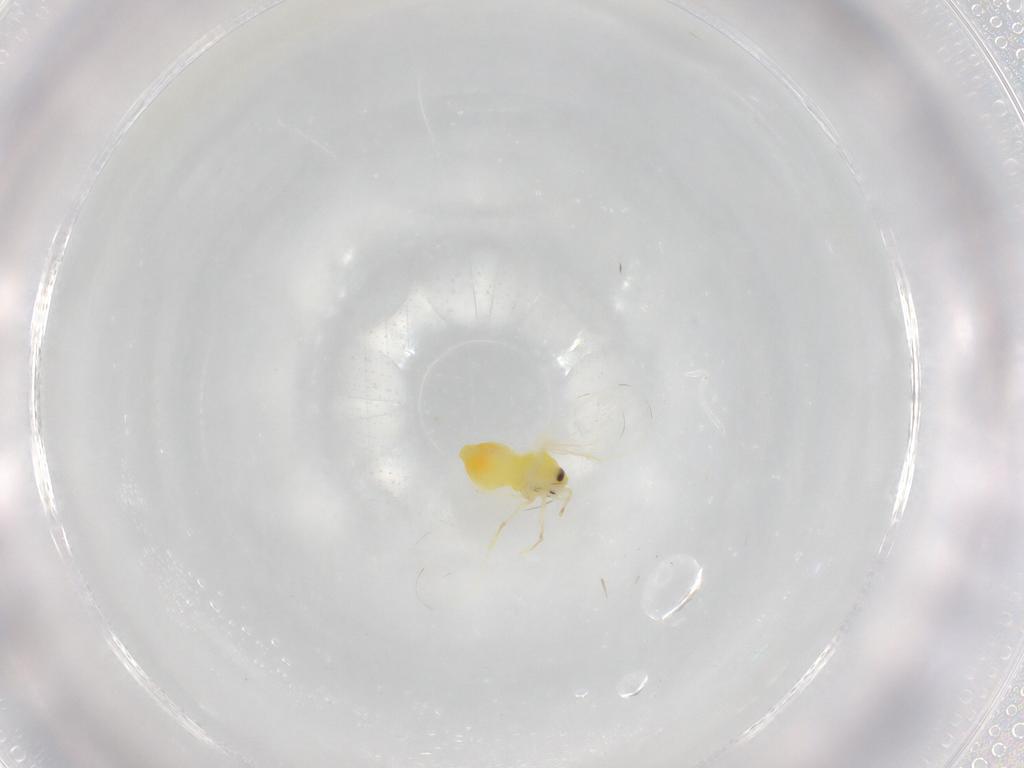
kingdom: Animalia
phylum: Arthropoda
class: Insecta
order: Hemiptera
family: Aleyrodidae
